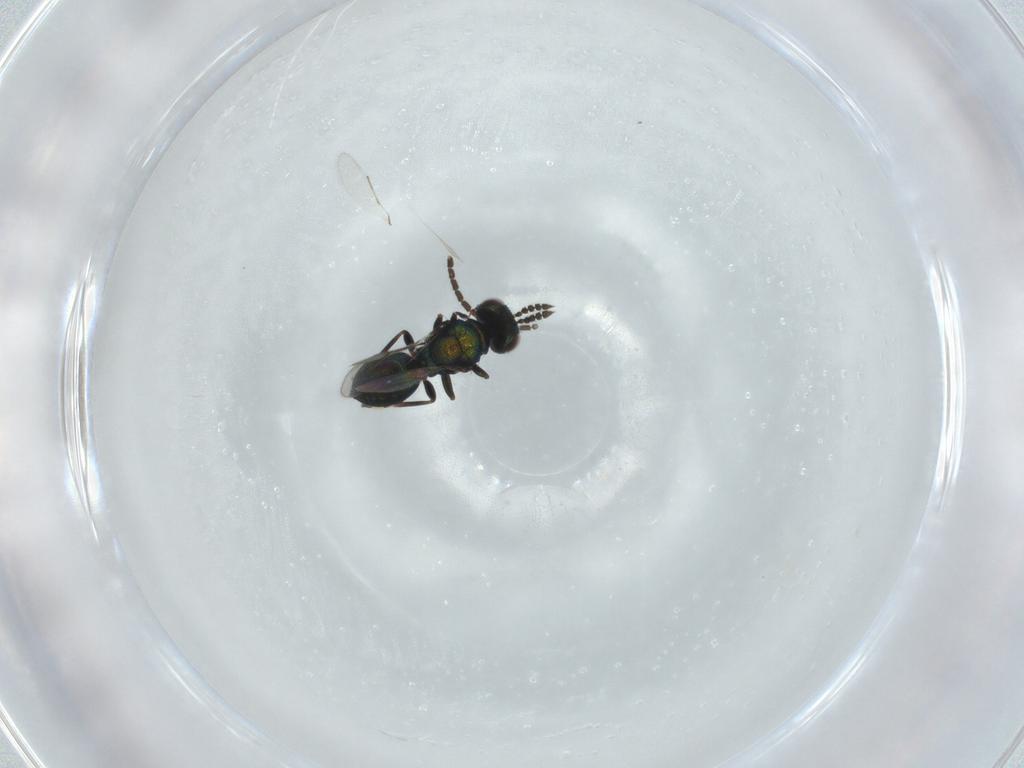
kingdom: Animalia
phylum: Arthropoda
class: Insecta
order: Hymenoptera
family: Eulophidae
